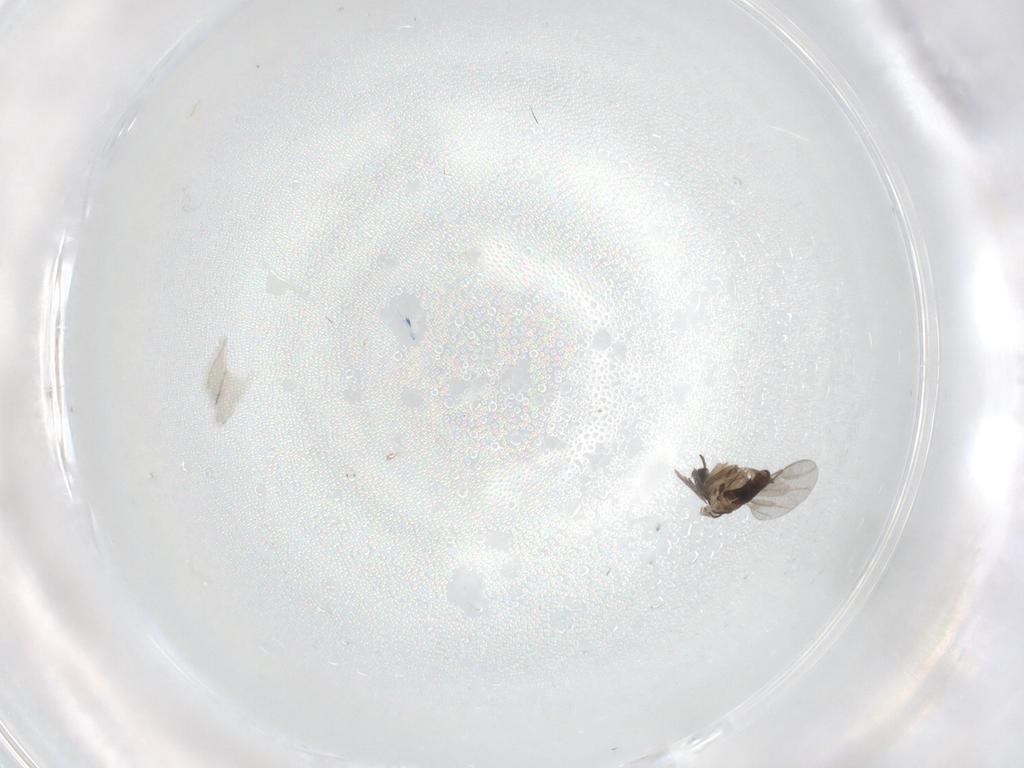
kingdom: Animalia
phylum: Arthropoda
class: Insecta
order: Diptera
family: Cecidomyiidae
